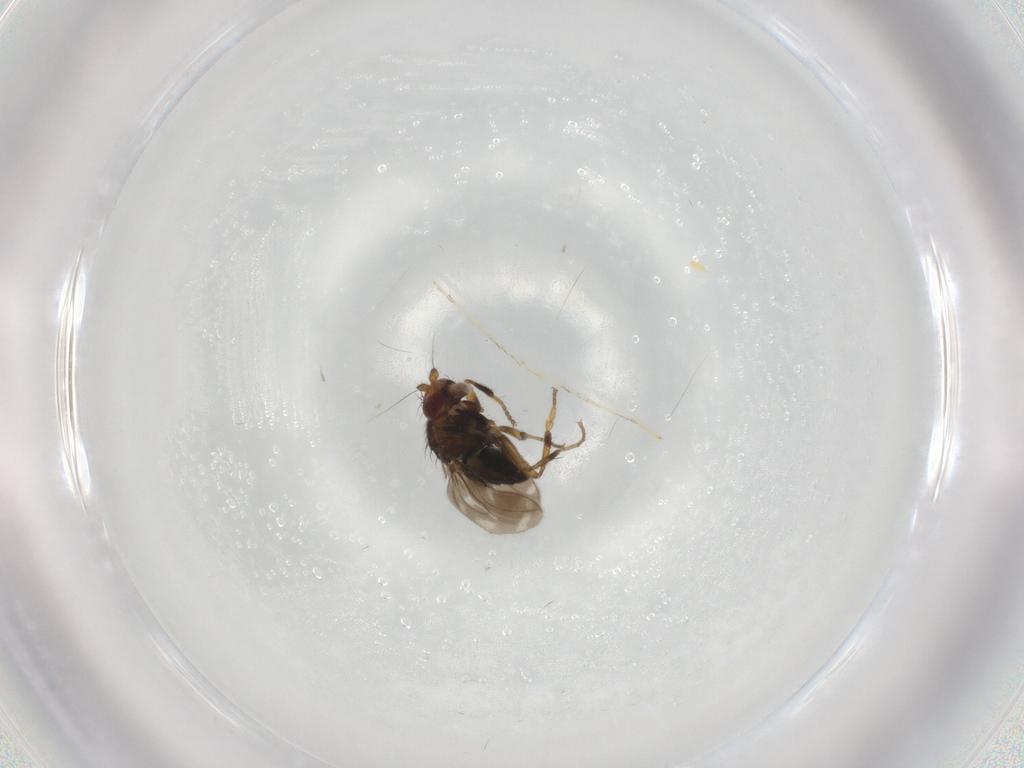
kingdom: Animalia
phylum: Arthropoda
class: Insecta
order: Diptera
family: Sphaeroceridae
